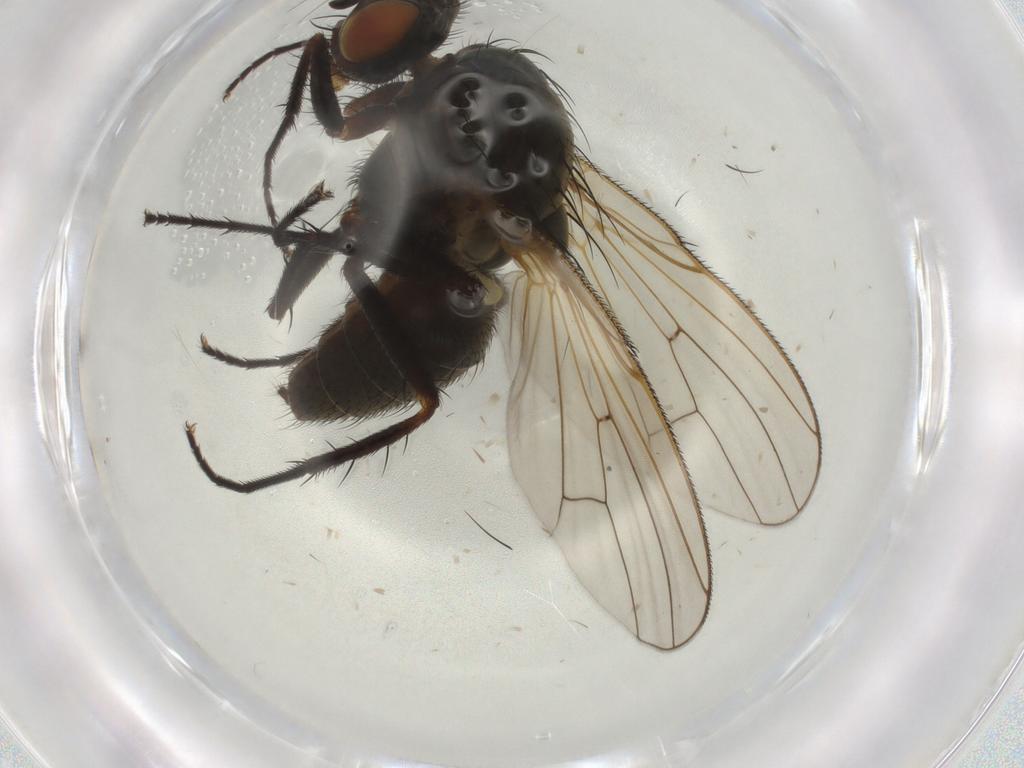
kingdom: Animalia
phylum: Arthropoda
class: Insecta
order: Diptera
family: Anthomyiidae
